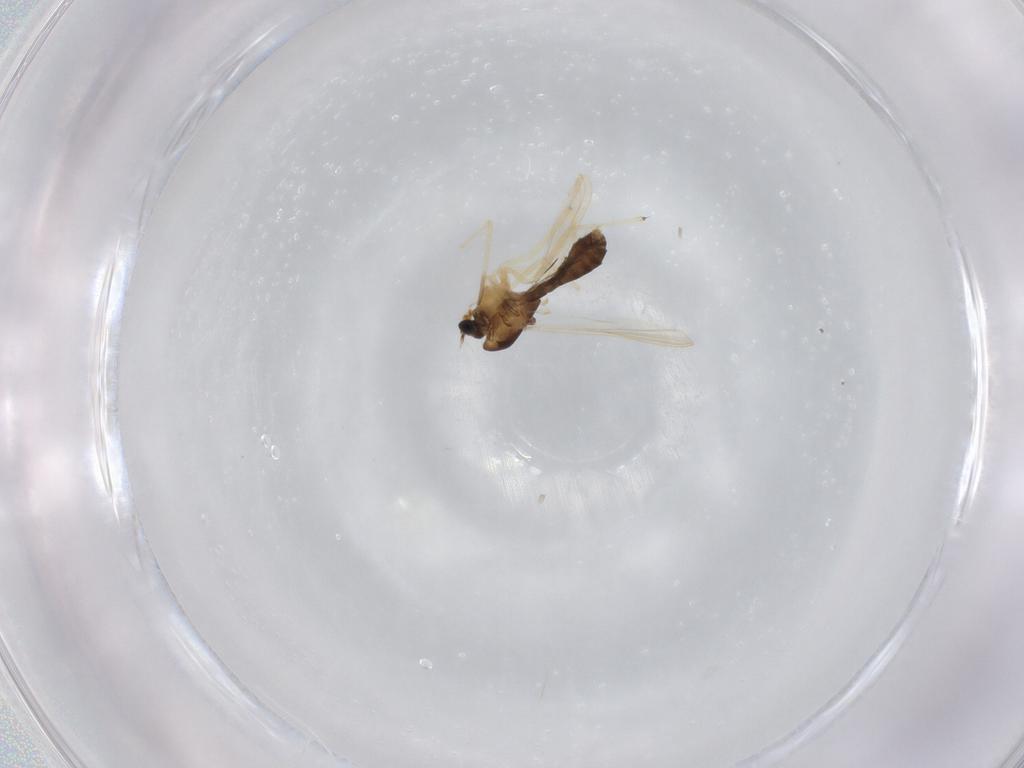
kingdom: Animalia
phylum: Arthropoda
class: Insecta
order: Diptera
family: Chironomidae
